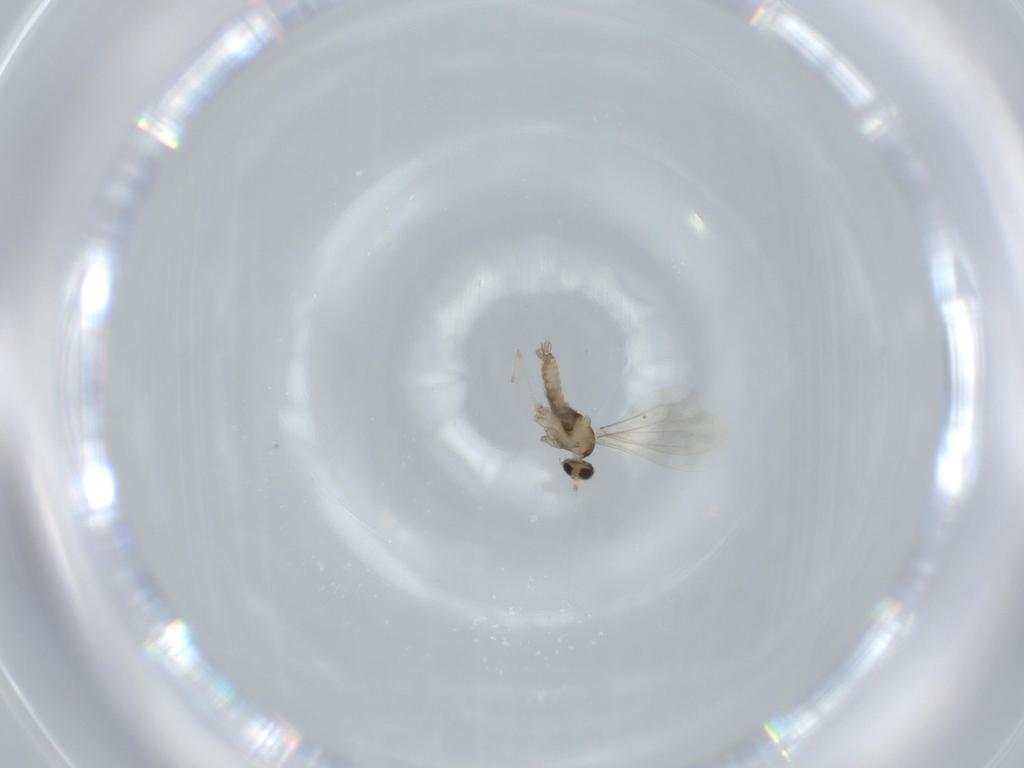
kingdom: Animalia
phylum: Arthropoda
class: Insecta
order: Diptera
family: Cecidomyiidae
